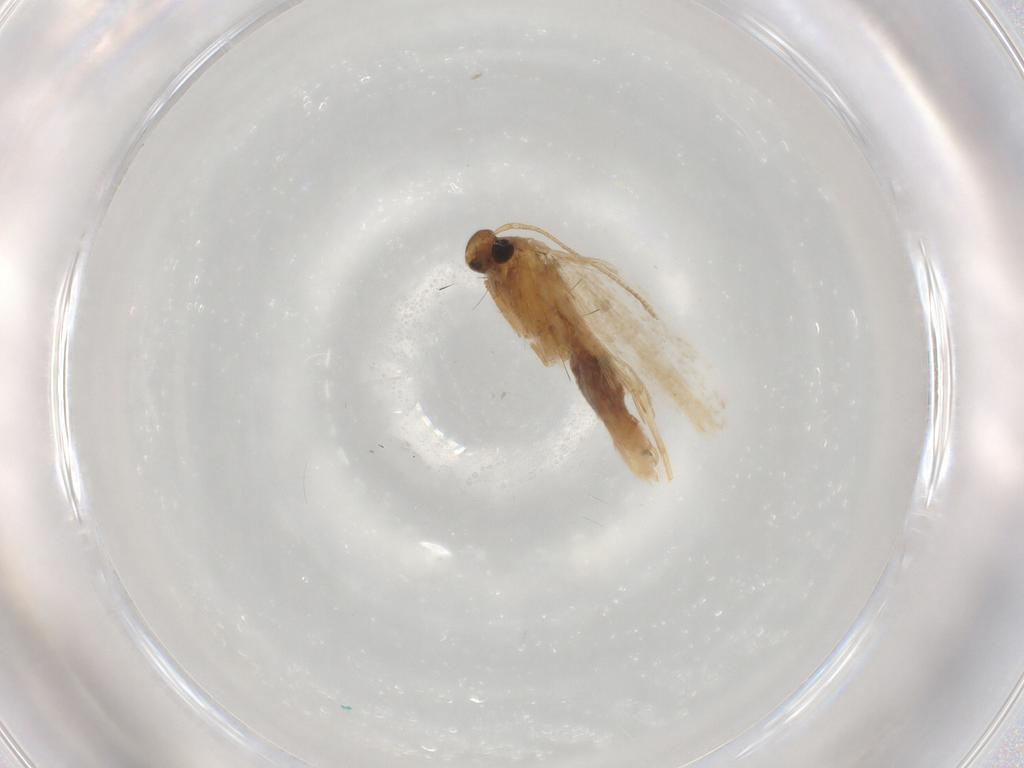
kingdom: Animalia
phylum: Arthropoda
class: Insecta
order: Lepidoptera
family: Gelechiidae
